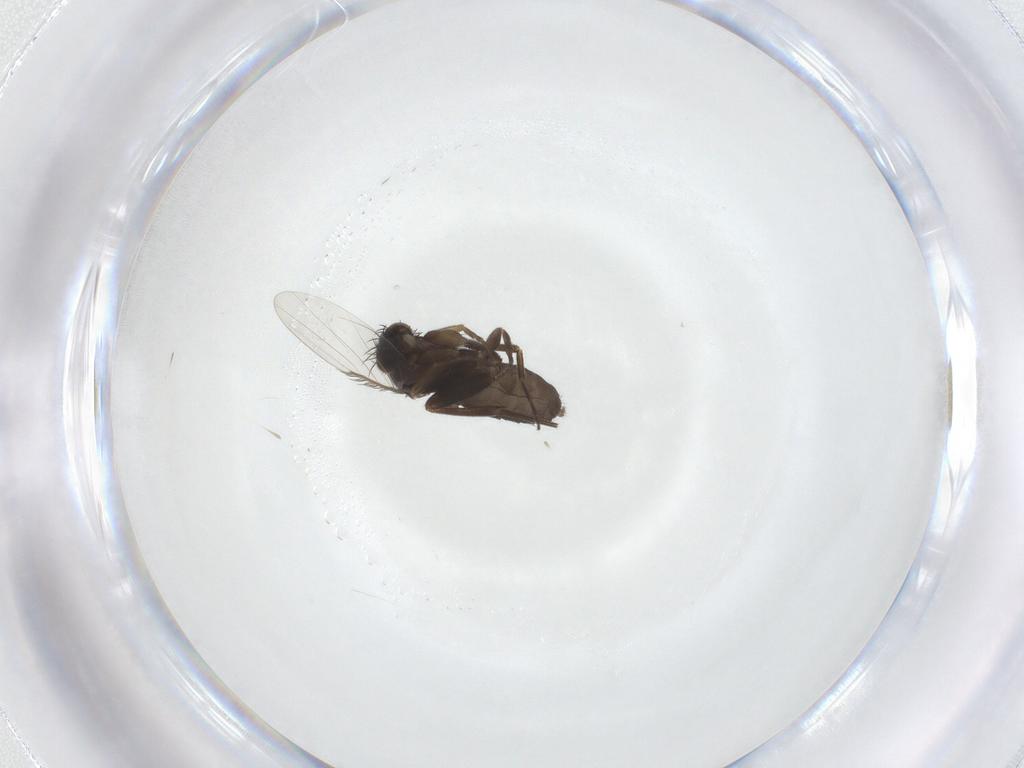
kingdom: Animalia
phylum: Arthropoda
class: Insecta
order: Diptera
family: Phoridae
